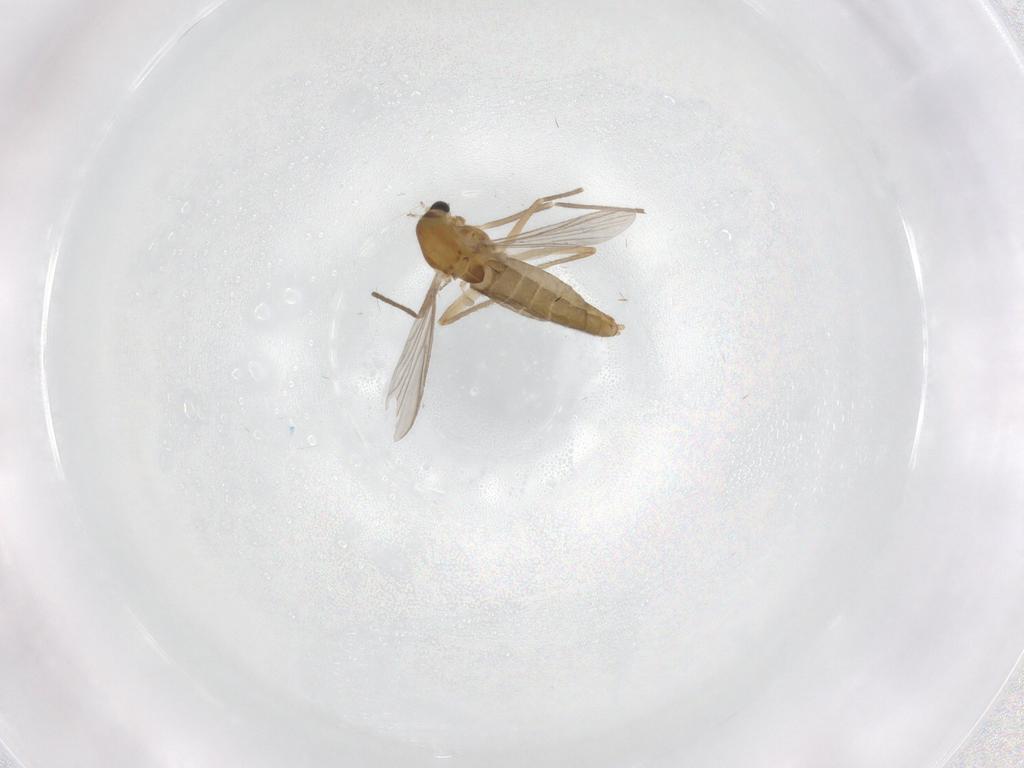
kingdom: Animalia
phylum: Arthropoda
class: Insecta
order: Diptera
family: Chironomidae
